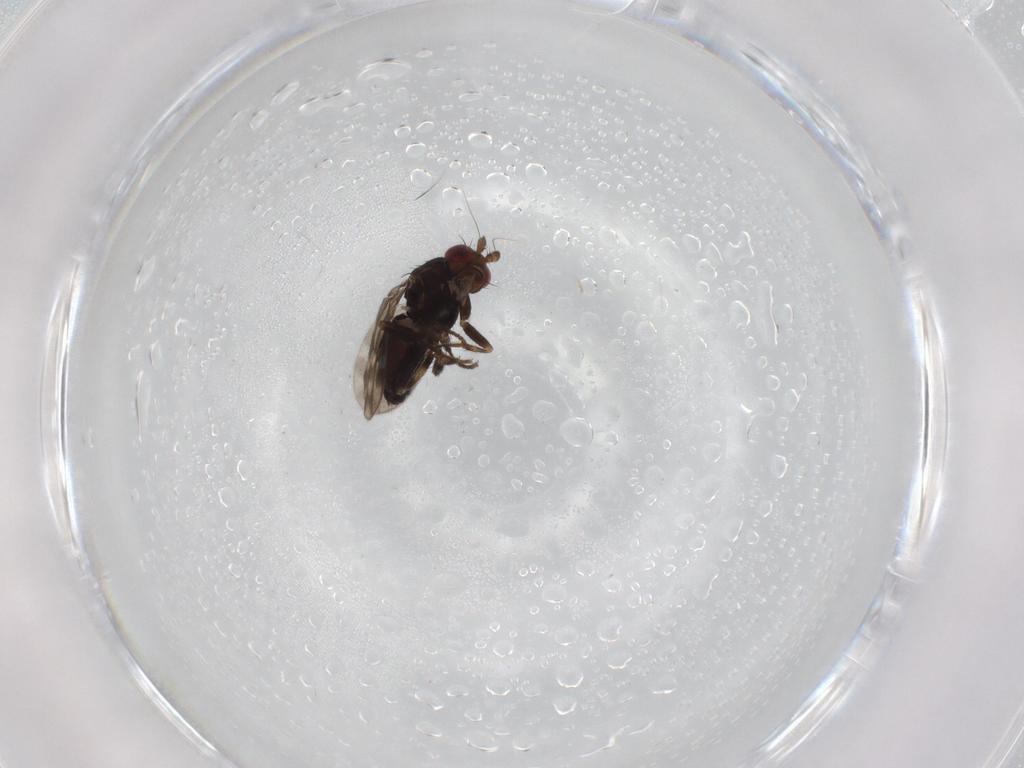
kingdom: Animalia
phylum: Arthropoda
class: Insecta
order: Diptera
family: Sphaeroceridae
